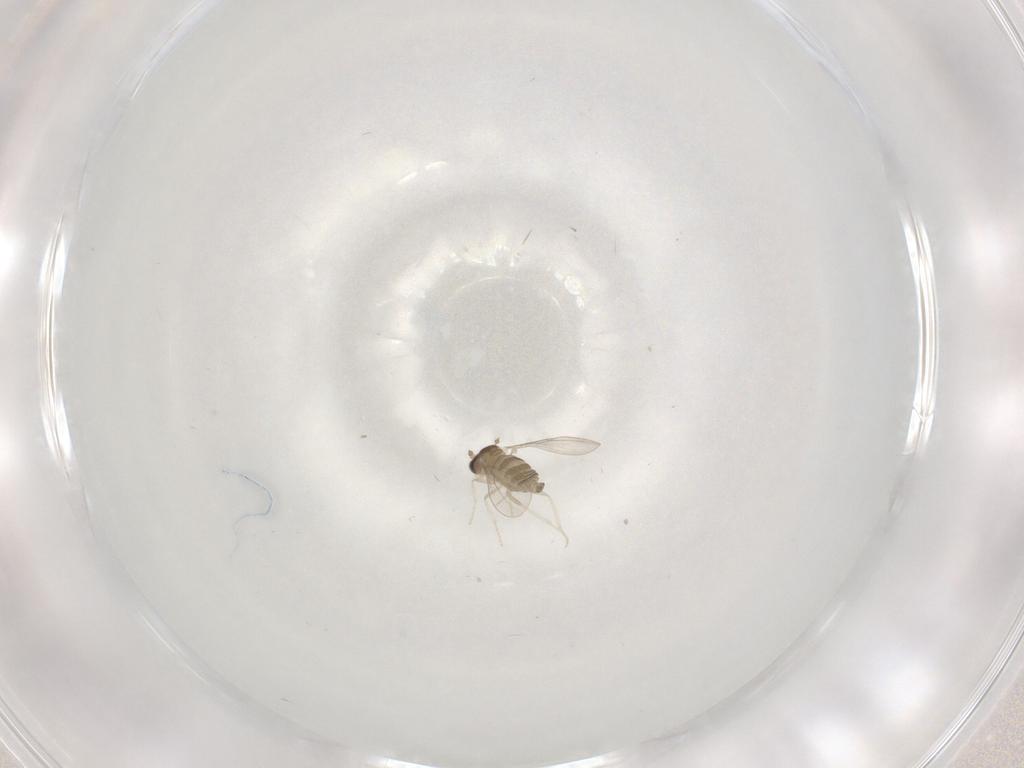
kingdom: Animalia
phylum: Arthropoda
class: Insecta
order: Diptera
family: Cecidomyiidae
